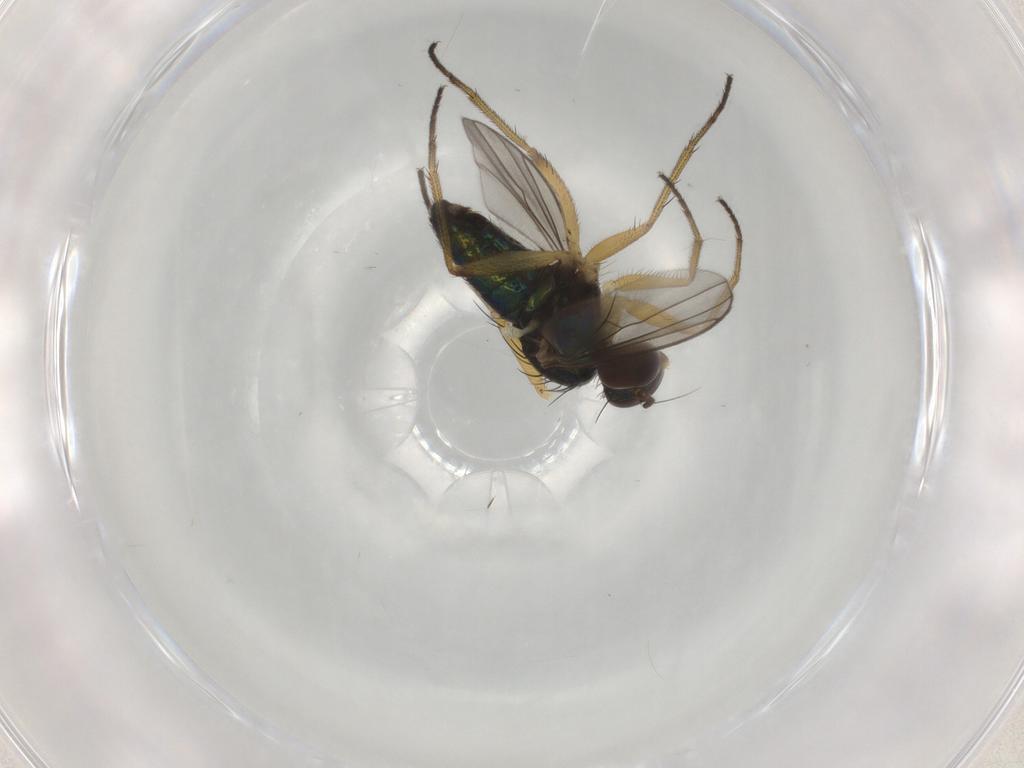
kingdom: Animalia
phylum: Arthropoda
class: Insecta
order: Diptera
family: Dolichopodidae
